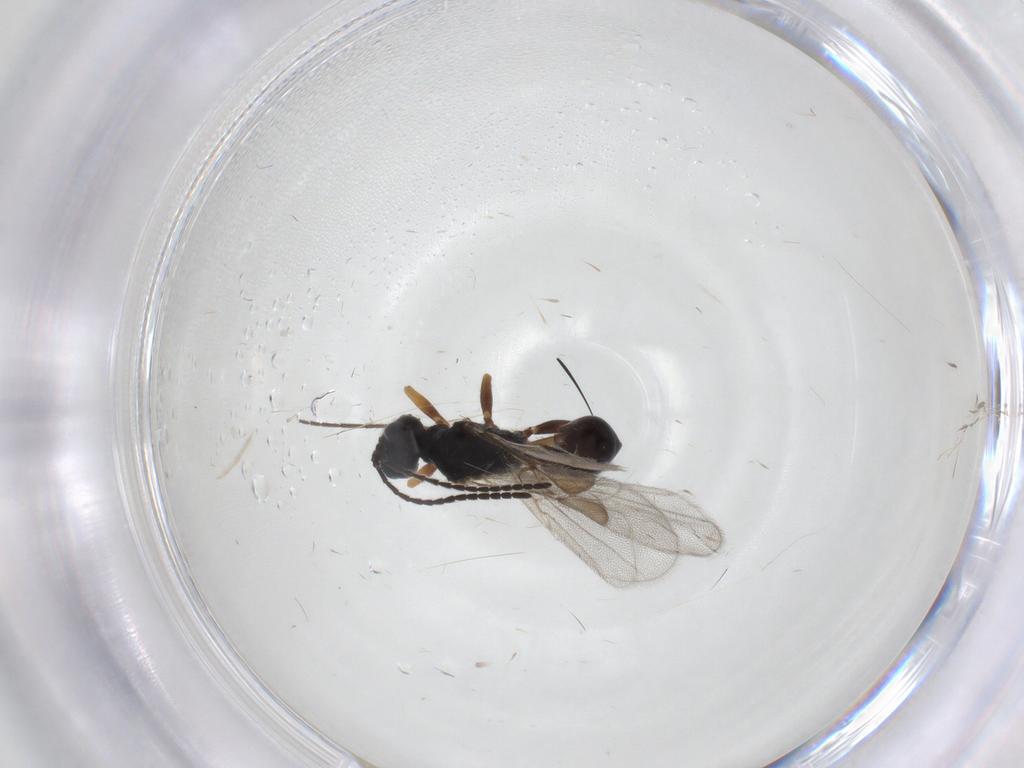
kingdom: Animalia
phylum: Arthropoda
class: Insecta
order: Hymenoptera
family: Braconidae
